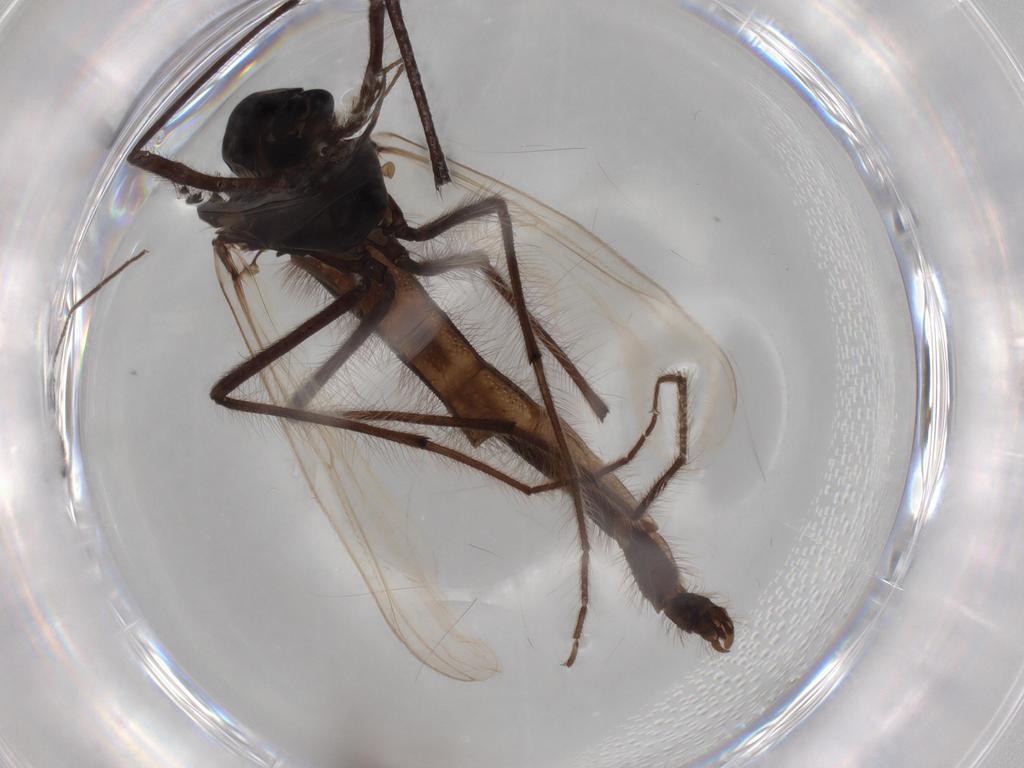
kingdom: Animalia
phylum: Arthropoda
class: Insecta
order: Diptera
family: Chironomidae
